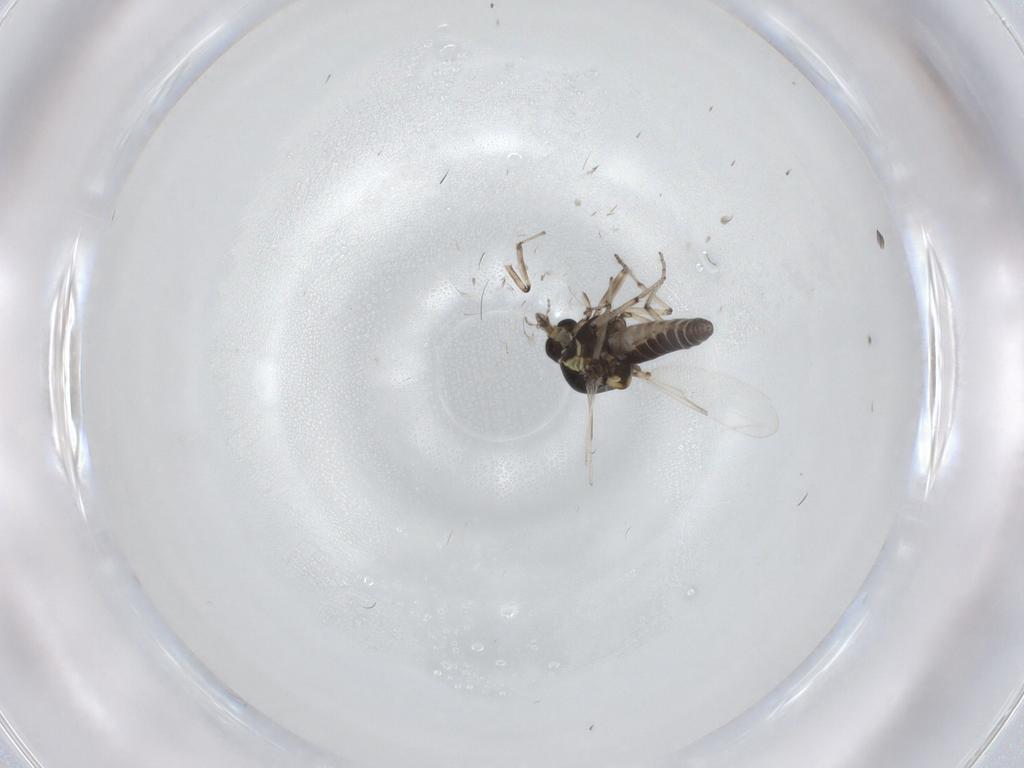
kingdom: Animalia
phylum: Arthropoda
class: Insecta
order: Diptera
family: Ceratopogonidae
